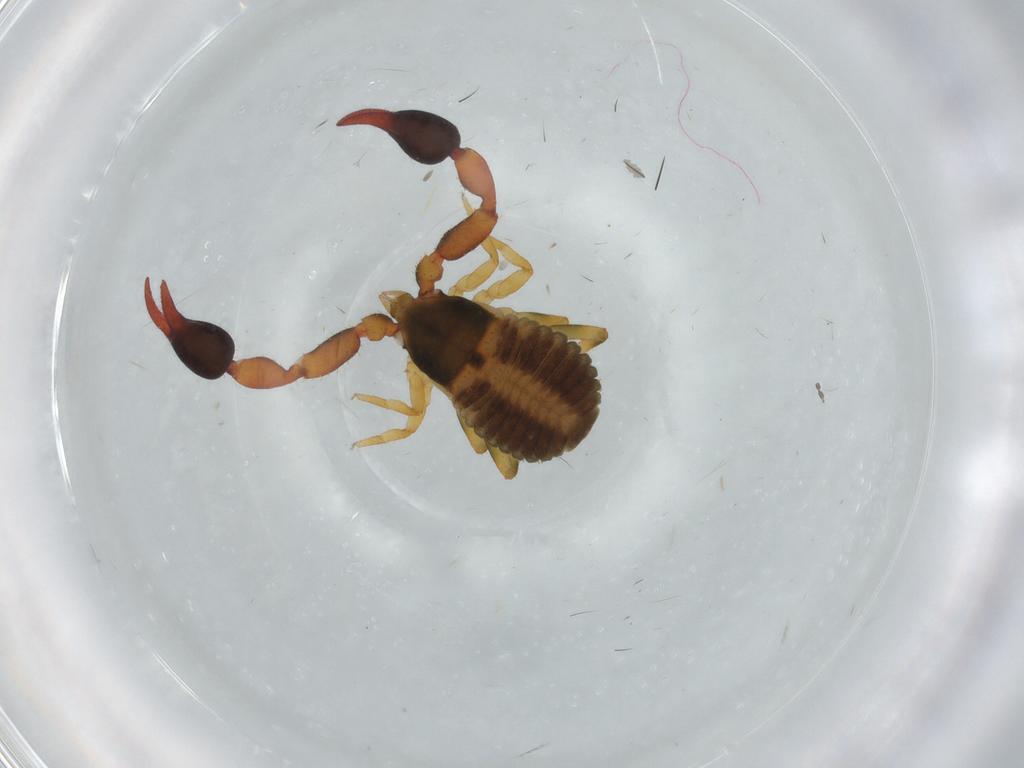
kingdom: Animalia
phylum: Arthropoda
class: Arachnida
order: Pseudoscorpiones
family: Chernetidae
